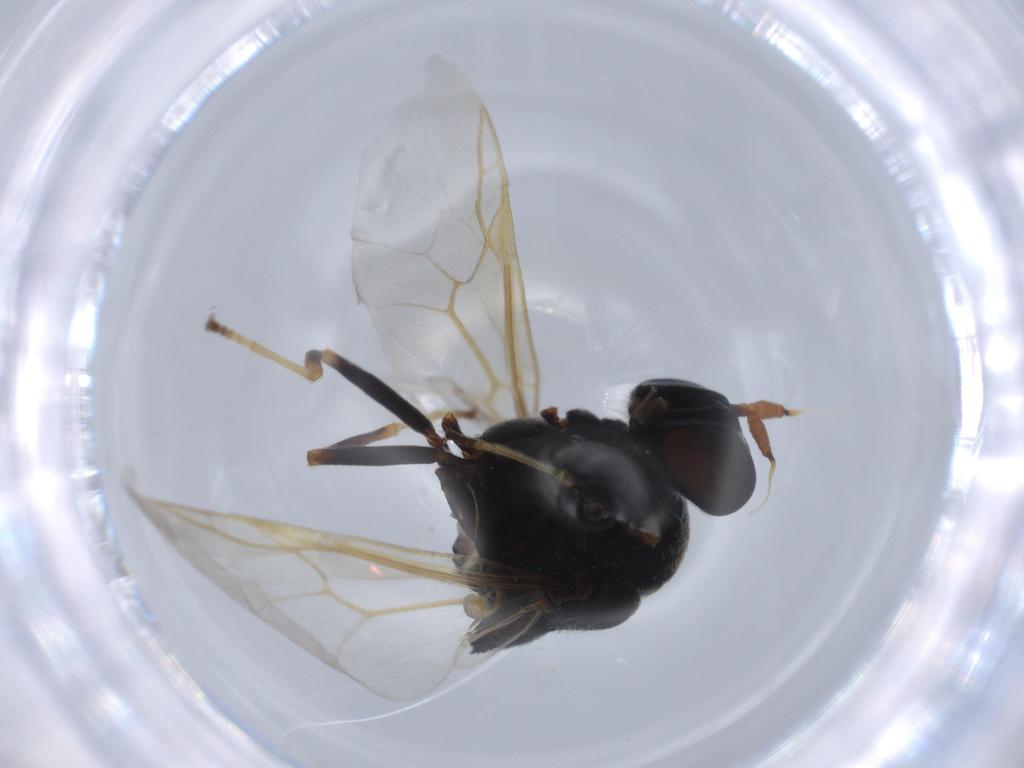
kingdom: Animalia
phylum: Arthropoda
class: Insecta
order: Diptera
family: Stratiomyidae
